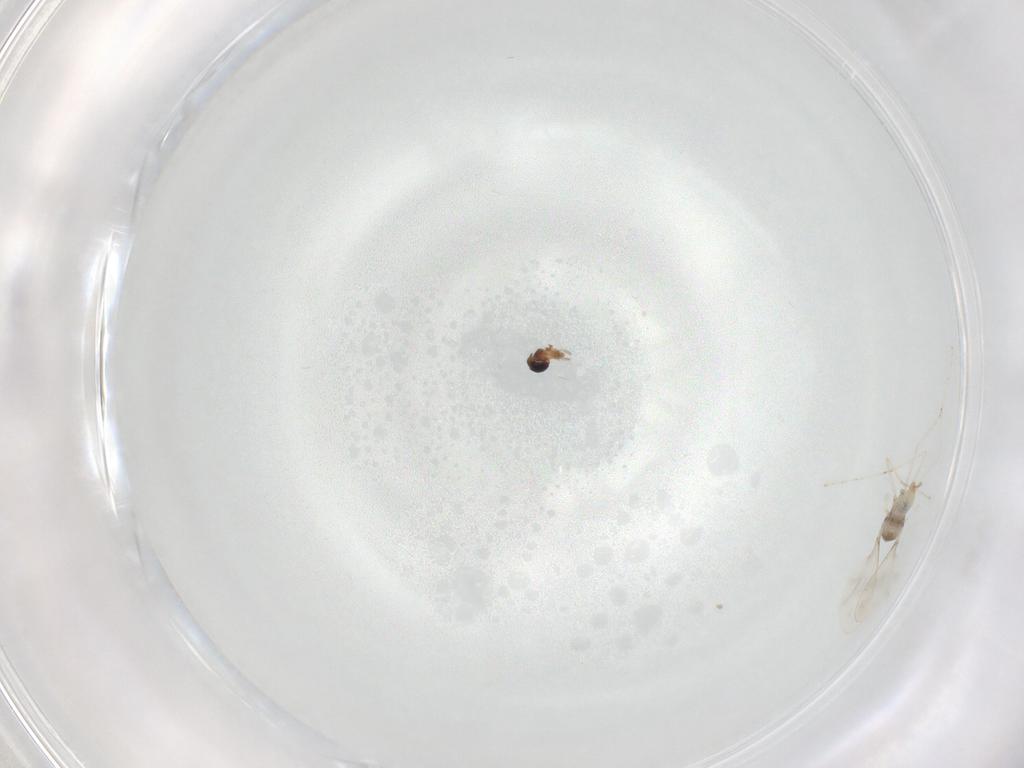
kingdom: Animalia
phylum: Arthropoda
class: Insecta
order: Diptera
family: Chironomidae
